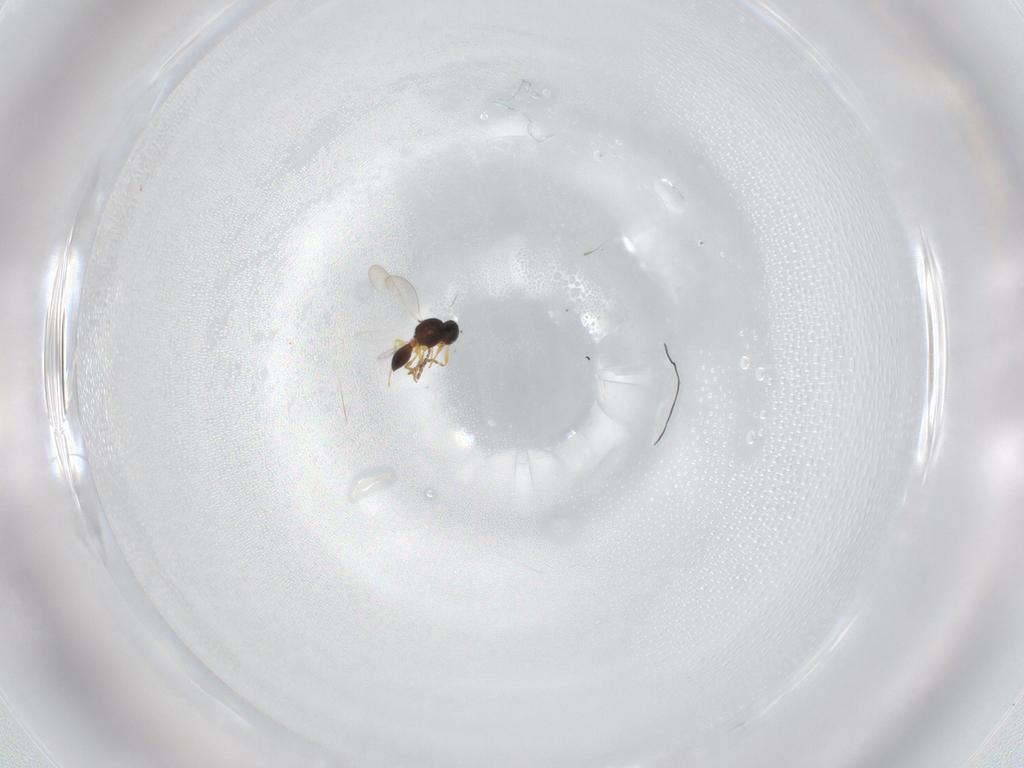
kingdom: Animalia
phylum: Arthropoda
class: Insecta
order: Hymenoptera
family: Platygastridae
